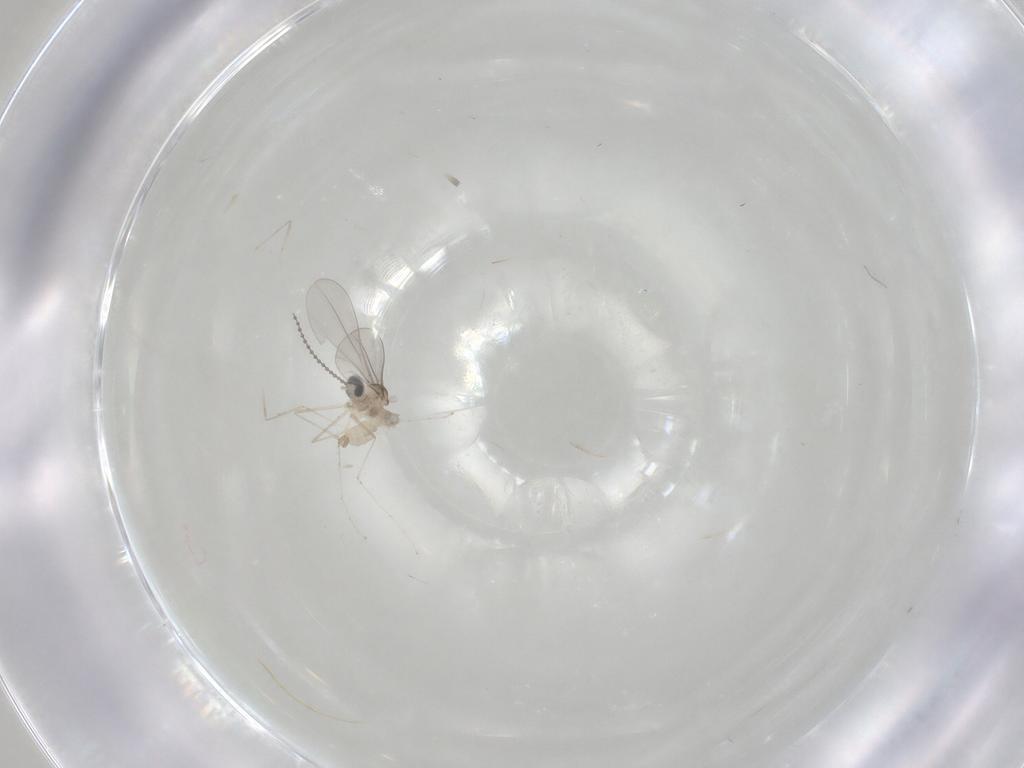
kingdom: Animalia
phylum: Arthropoda
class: Insecta
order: Diptera
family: Cecidomyiidae
